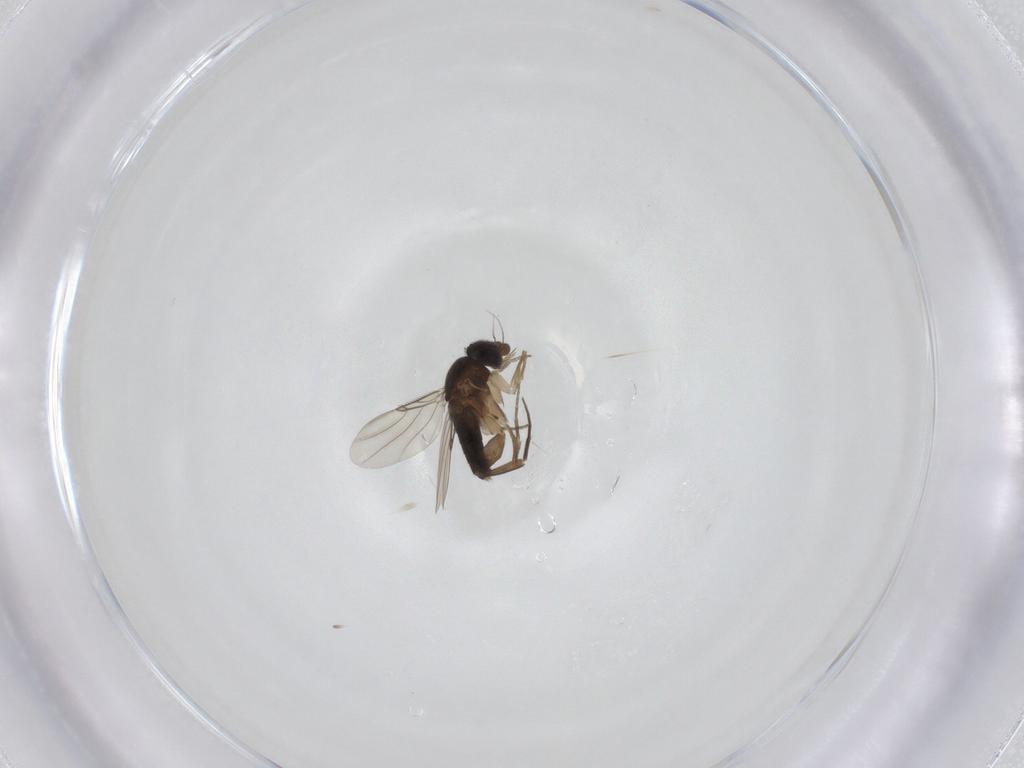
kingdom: Animalia
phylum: Arthropoda
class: Insecta
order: Diptera
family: Phoridae
